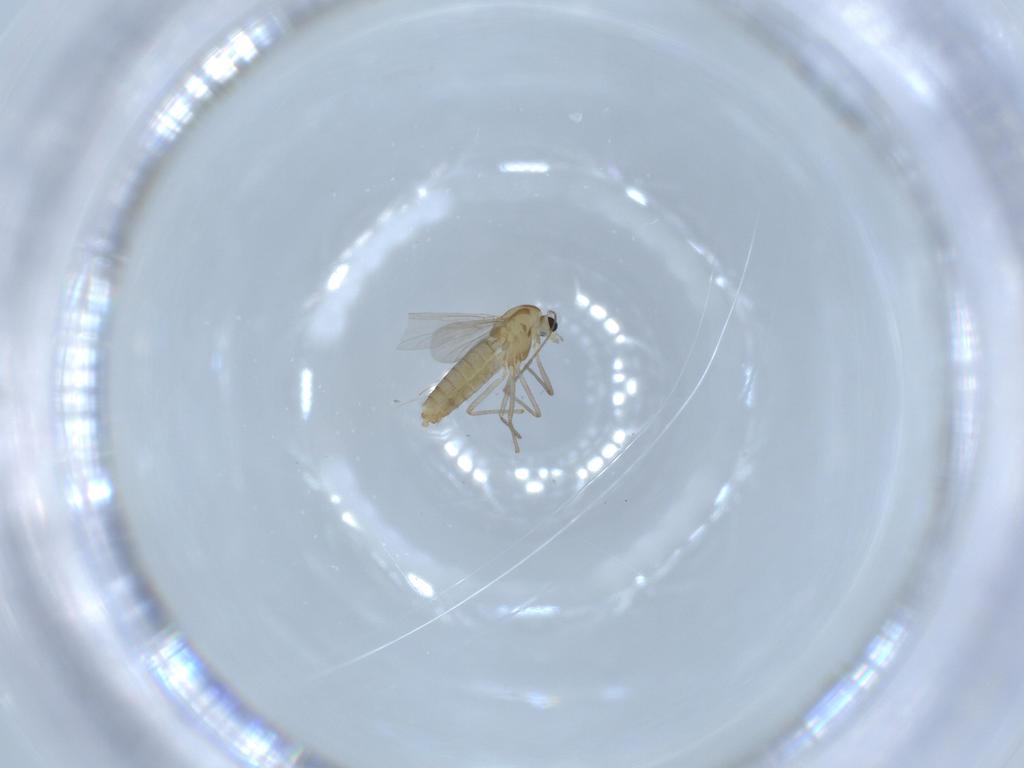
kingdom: Animalia
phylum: Arthropoda
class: Insecta
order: Diptera
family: Chironomidae
